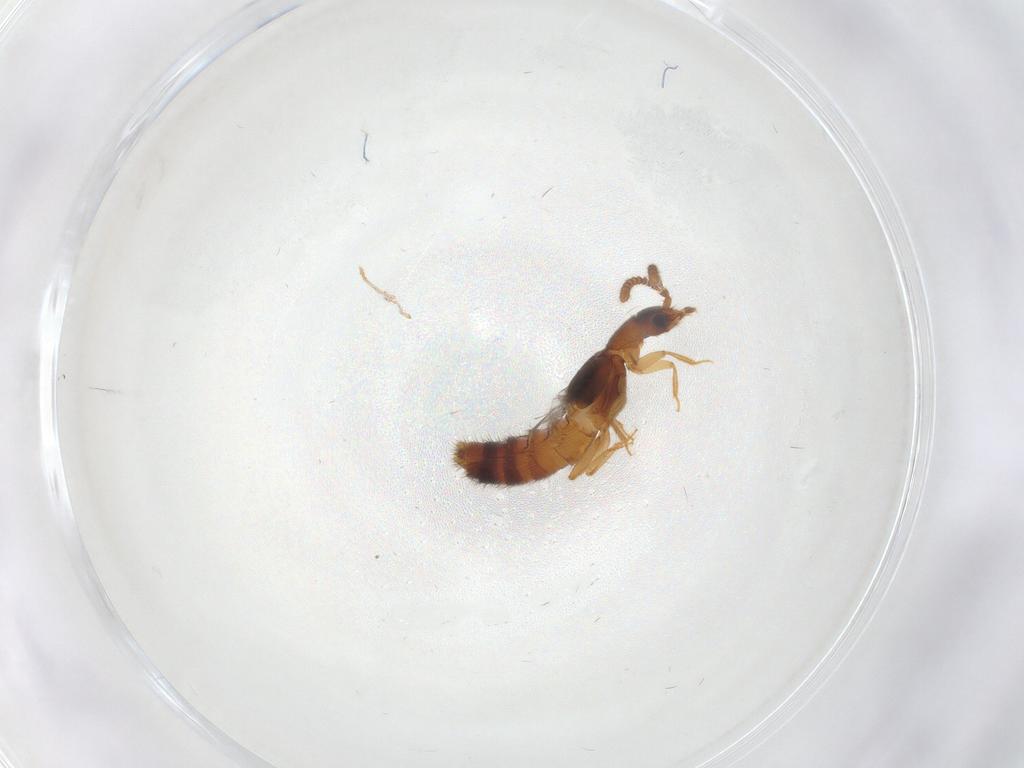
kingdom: Animalia
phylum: Arthropoda
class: Insecta
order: Coleoptera
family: Staphylinidae
